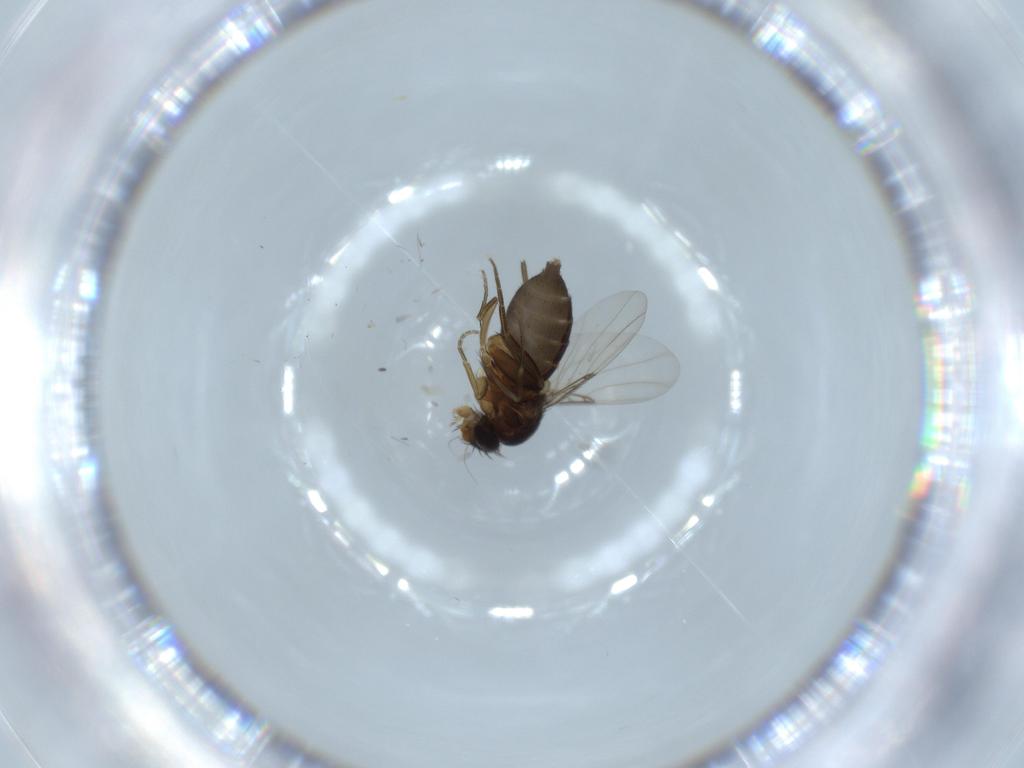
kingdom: Animalia
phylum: Arthropoda
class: Insecta
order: Diptera
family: Phoridae
